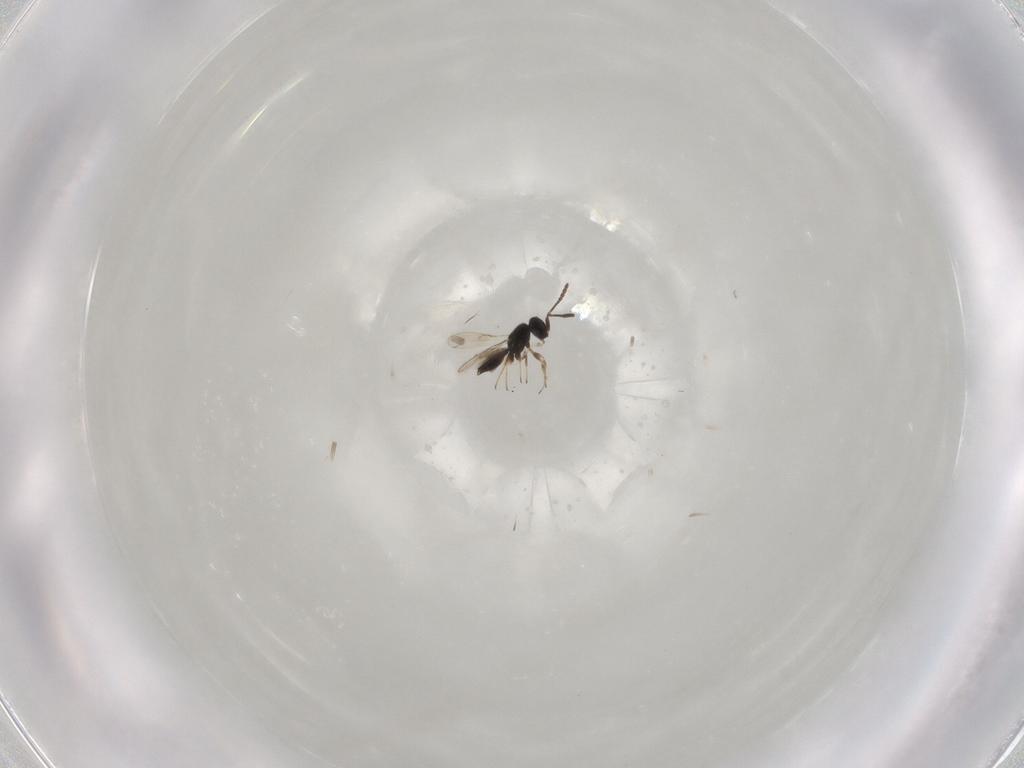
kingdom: Animalia
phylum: Arthropoda
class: Insecta
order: Hymenoptera
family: Scelionidae
